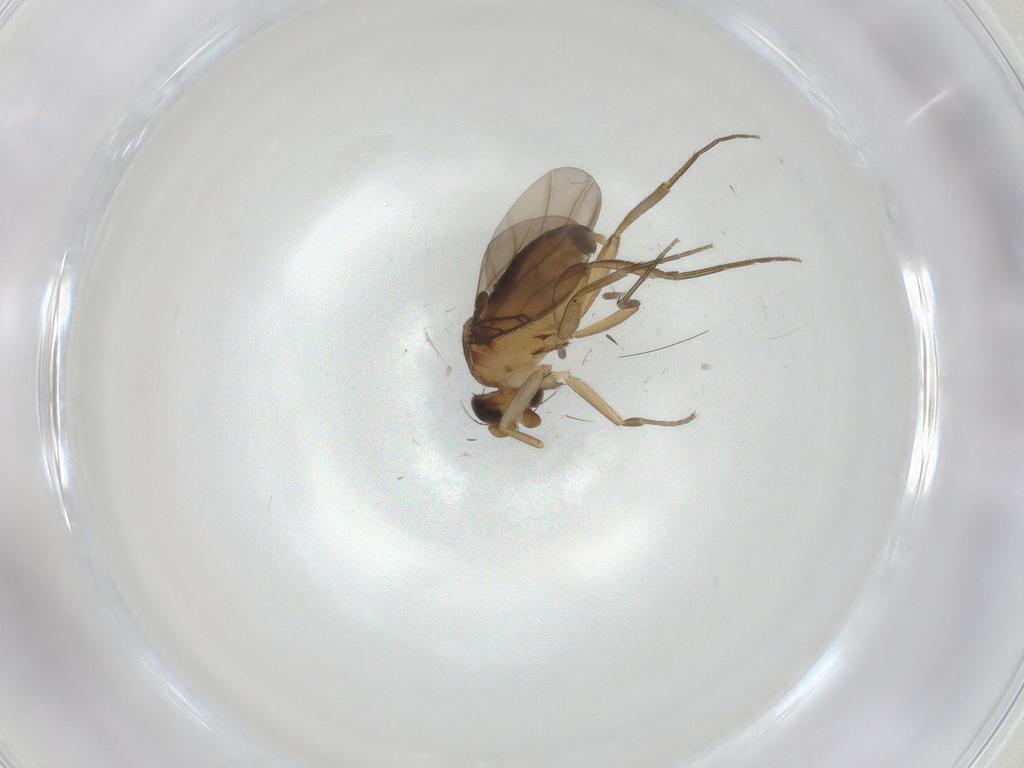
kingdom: Animalia
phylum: Arthropoda
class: Insecta
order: Diptera
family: Phoridae
